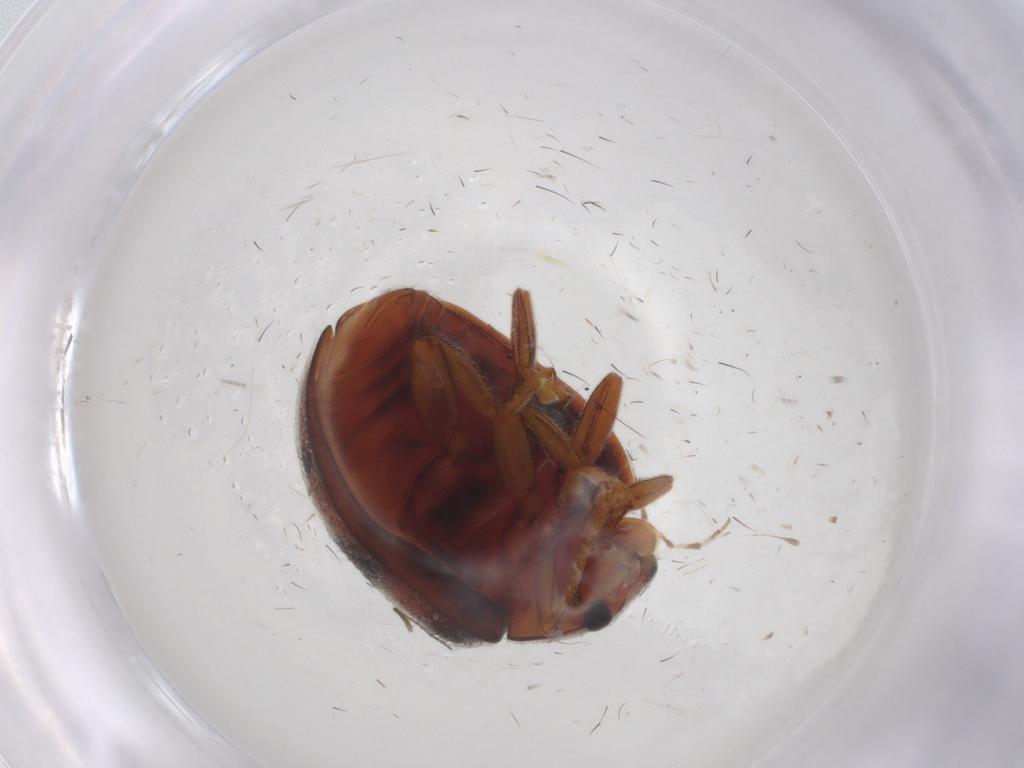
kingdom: Animalia
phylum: Arthropoda
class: Insecta
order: Coleoptera
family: Coccinellidae
